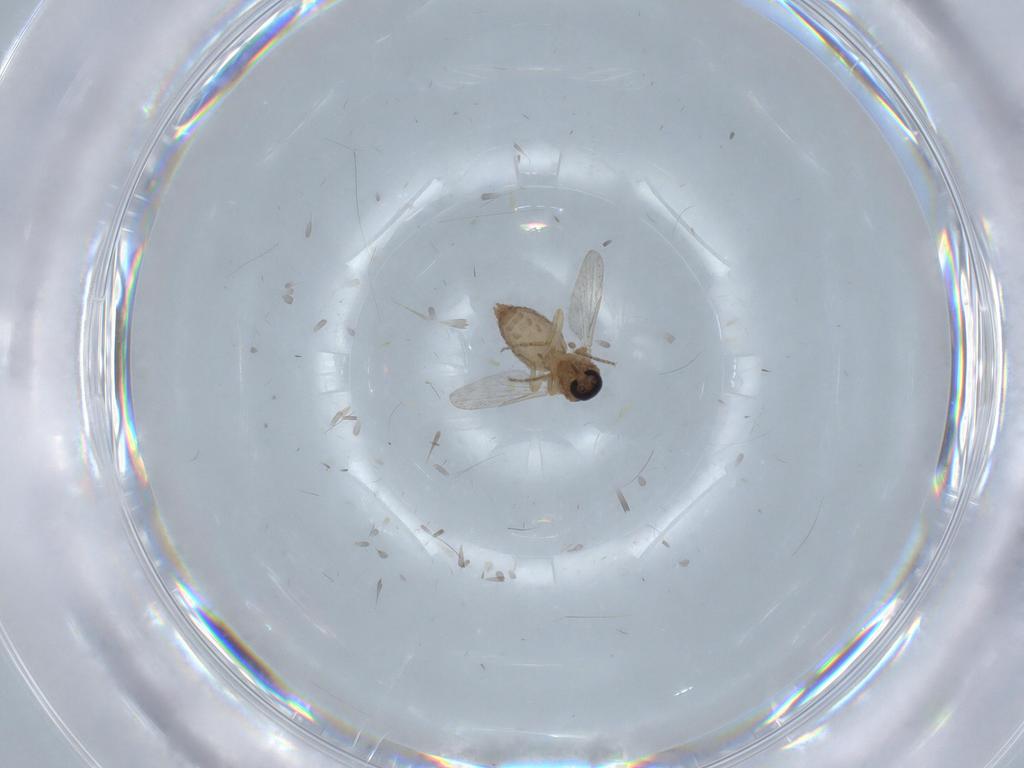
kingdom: Animalia
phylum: Arthropoda
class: Insecta
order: Diptera
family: Ceratopogonidae
